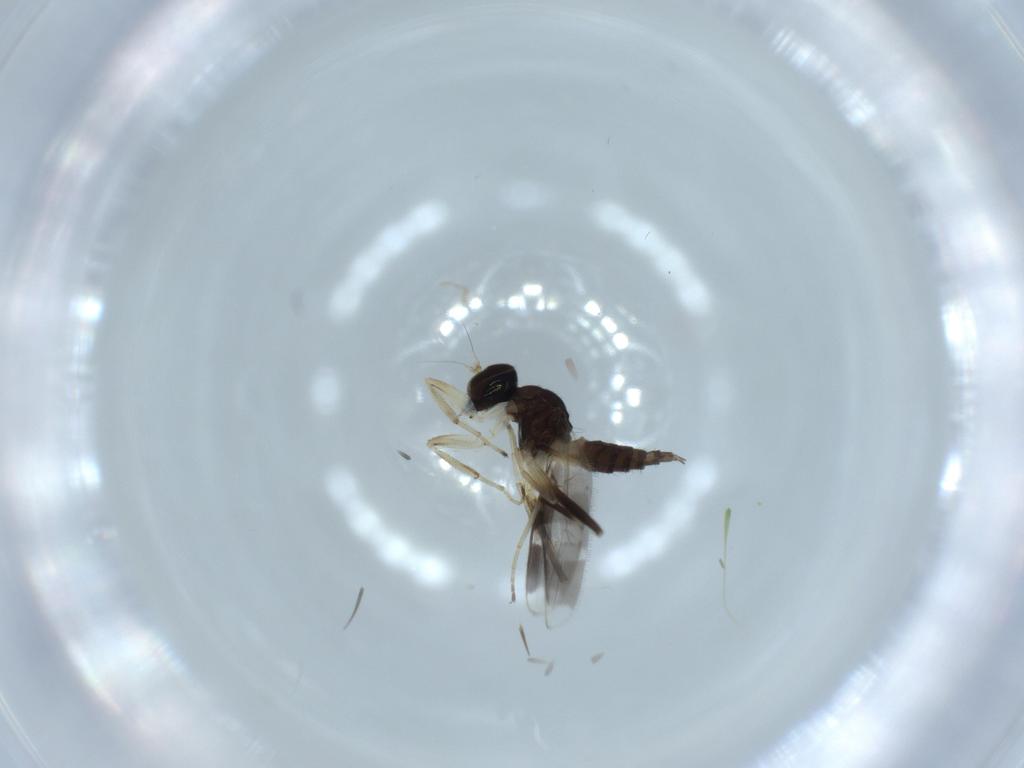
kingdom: Animalia
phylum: Arthropoda
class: Insecta
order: Diptera
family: Hybotidae
